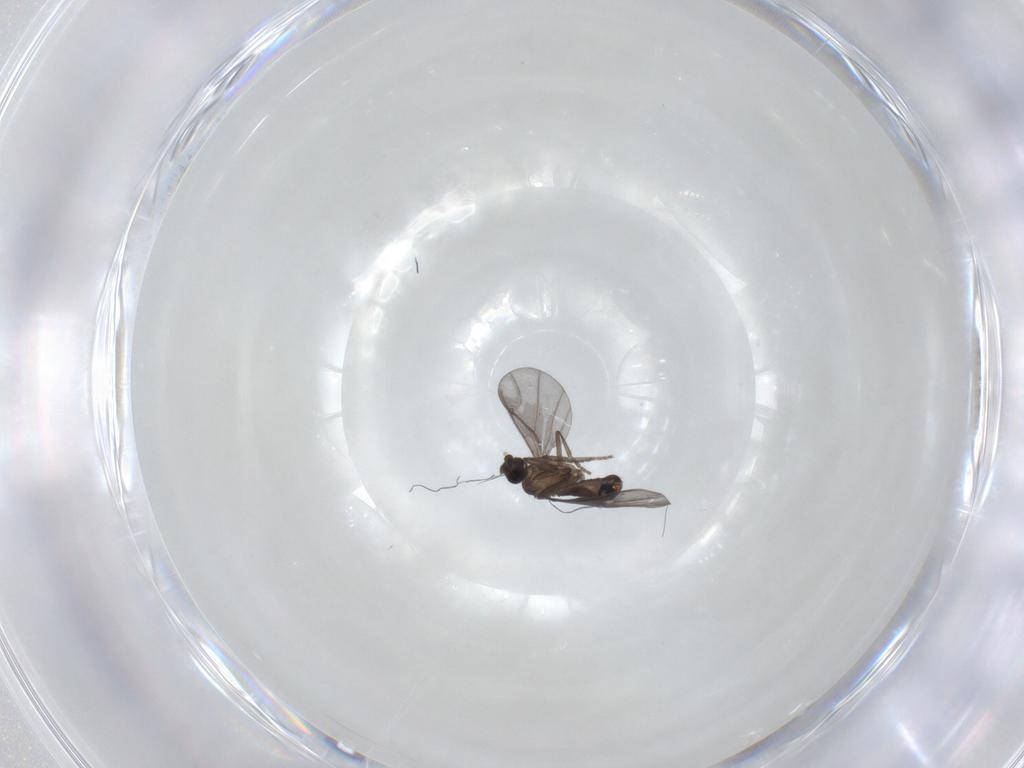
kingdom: Animalia
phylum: Arthropoda
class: Insecta
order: Diptera
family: Phoridae
